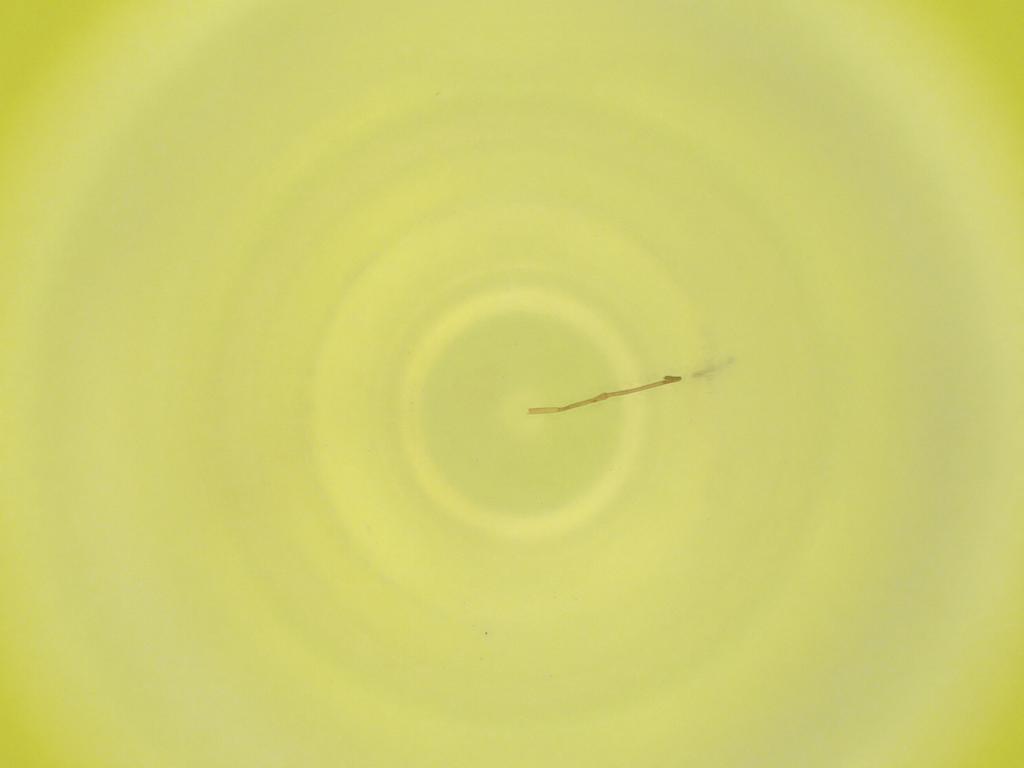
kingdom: Animalia
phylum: Arthropoda
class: Insecta
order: Diptera
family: Cecidomyiidae
